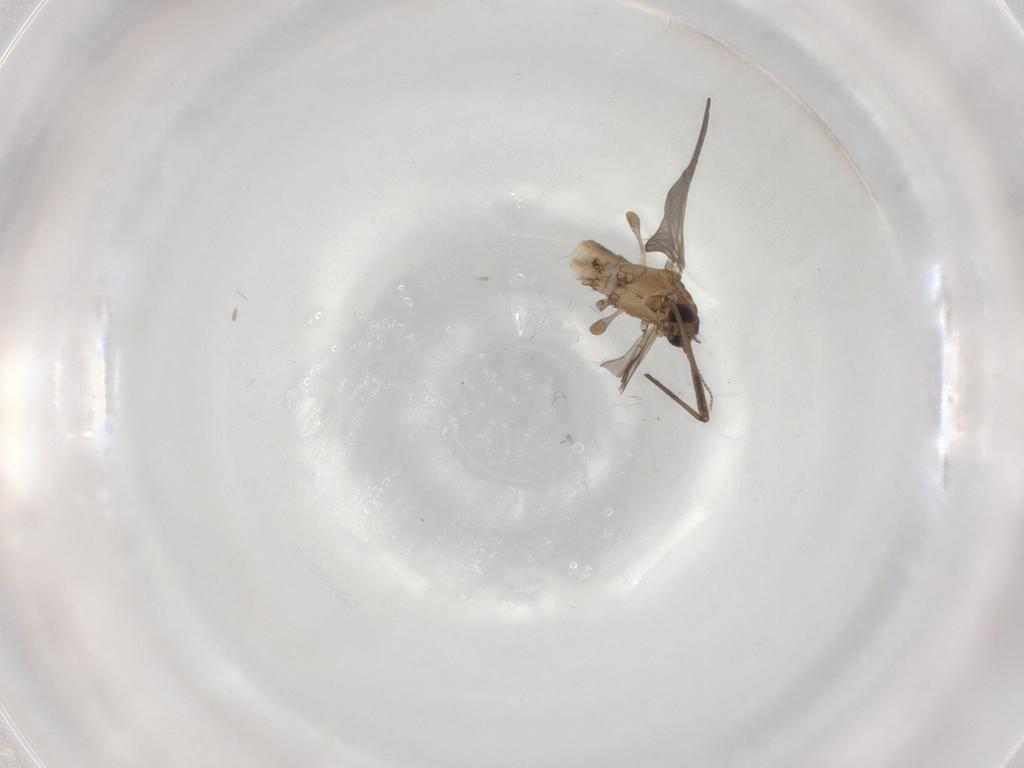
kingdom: Animalia
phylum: Arthropoda
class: Insecta
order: Diptera
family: Limoniidae
